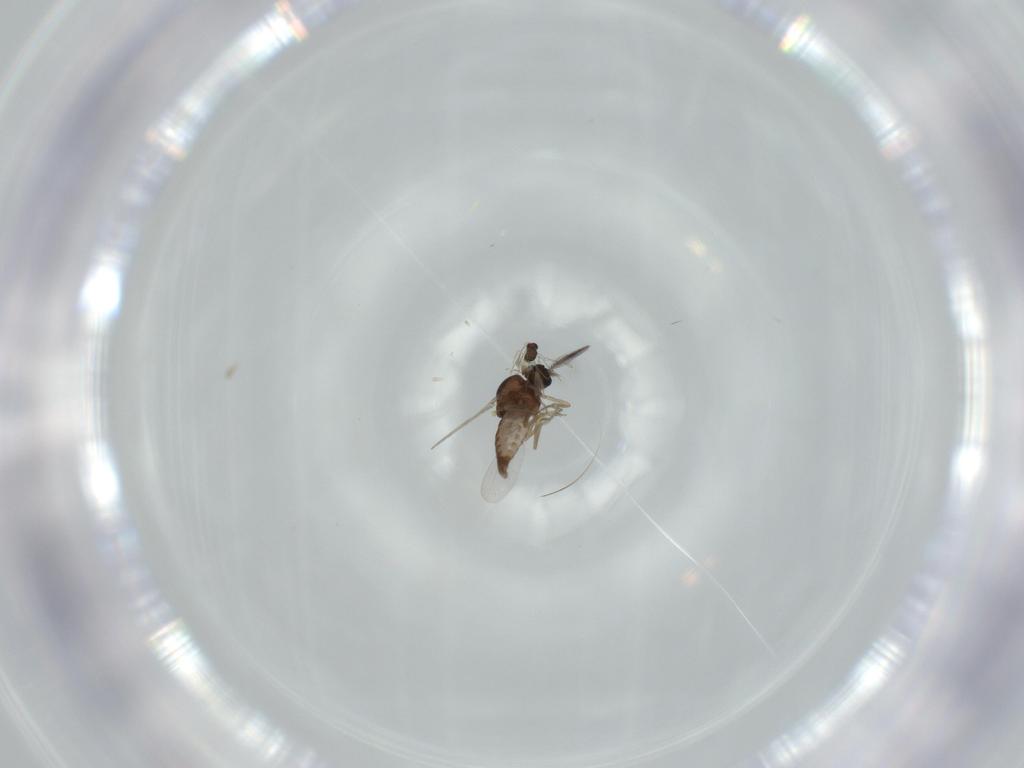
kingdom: Animalia
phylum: Arthropoda
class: Insecta
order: Diptera
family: Ceratopogonidae
